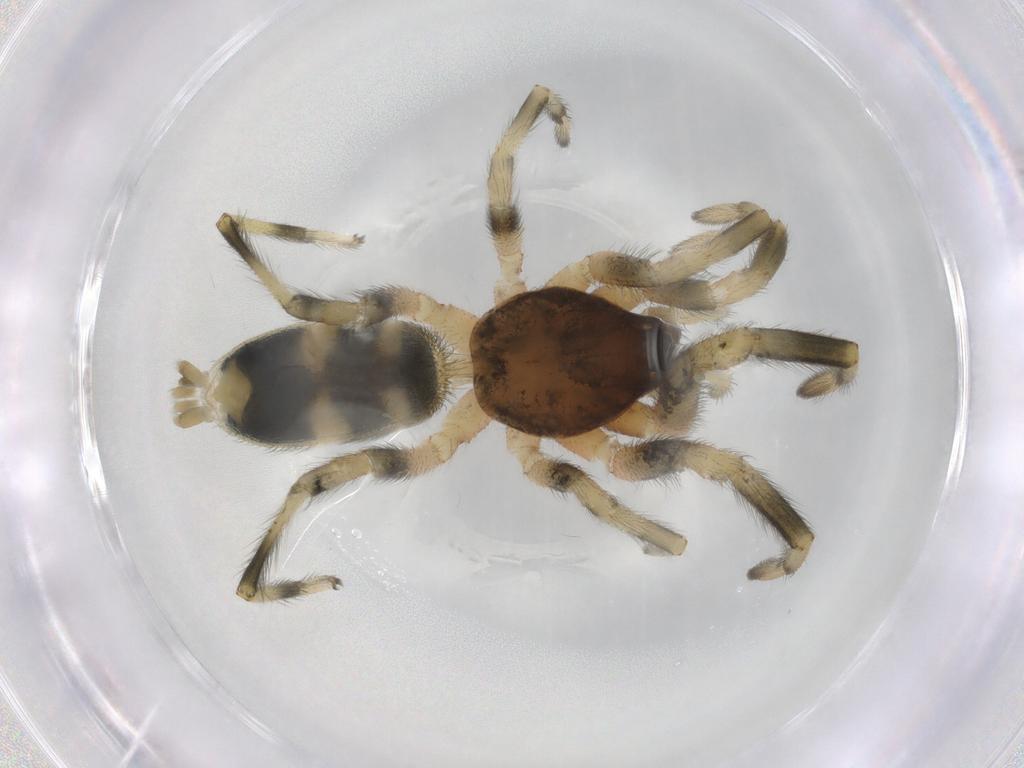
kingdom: Animalia
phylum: Arthropoda
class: Arachnida
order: Araneae
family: Lamponidae
